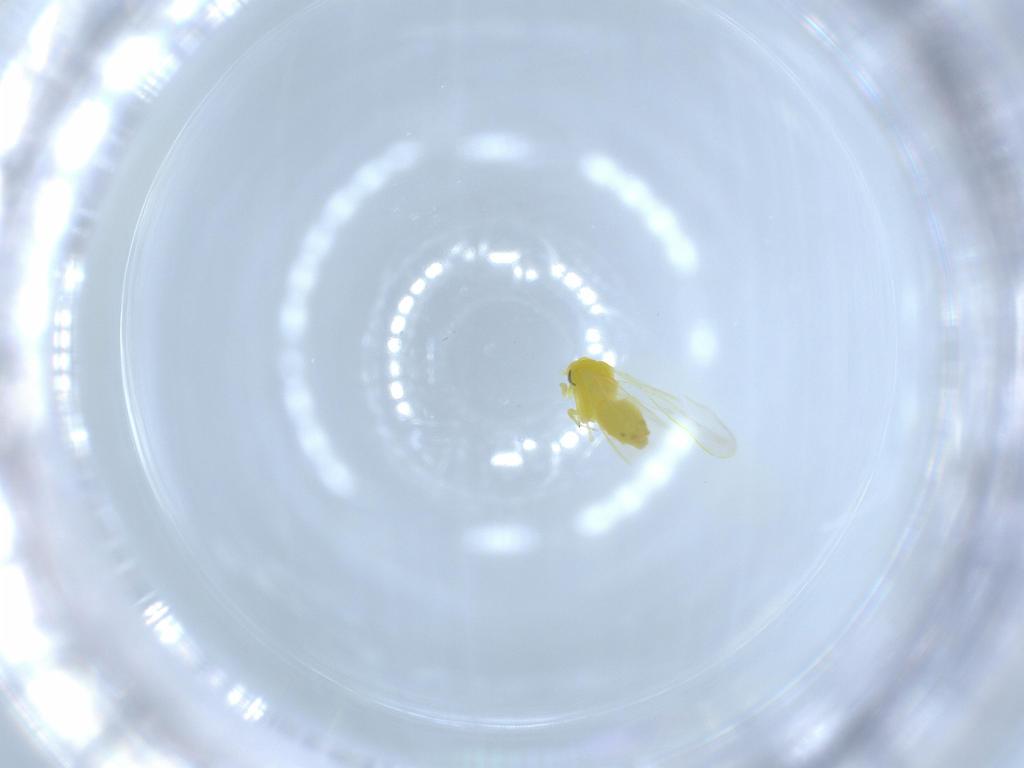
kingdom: Animalia
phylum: Arthropoda
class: Insecta
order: Hemiptera
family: Aleyrodidae
